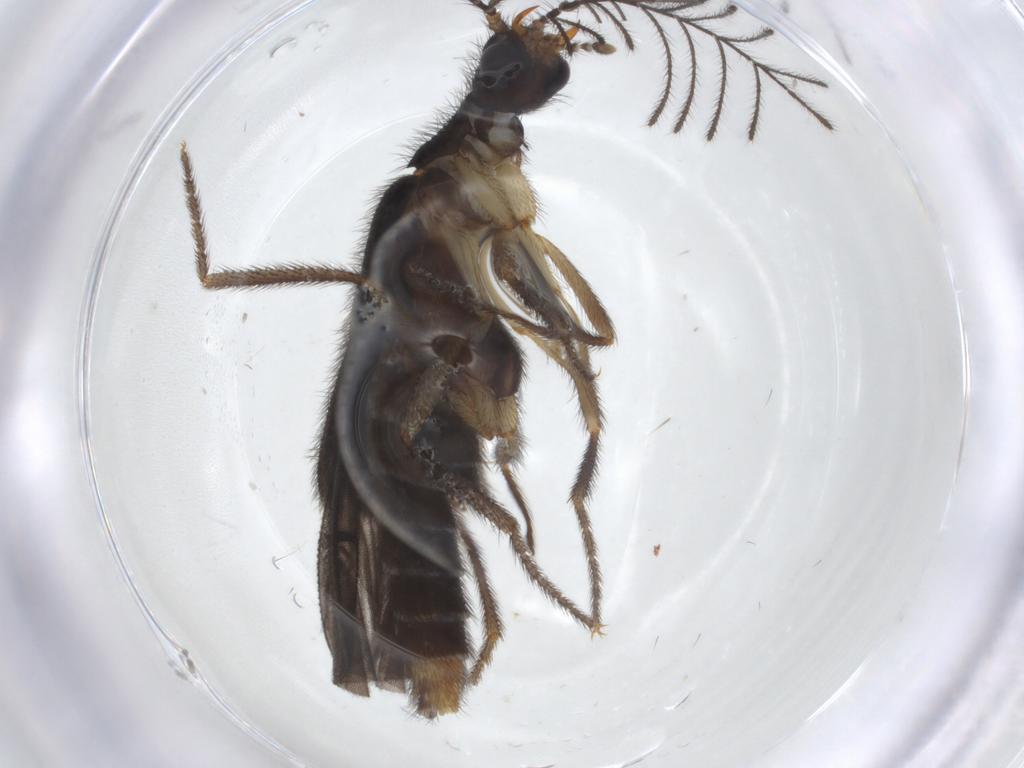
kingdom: Animalia
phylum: Arthropoda
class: Insecta
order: Coleoptera
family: Phengodidae
